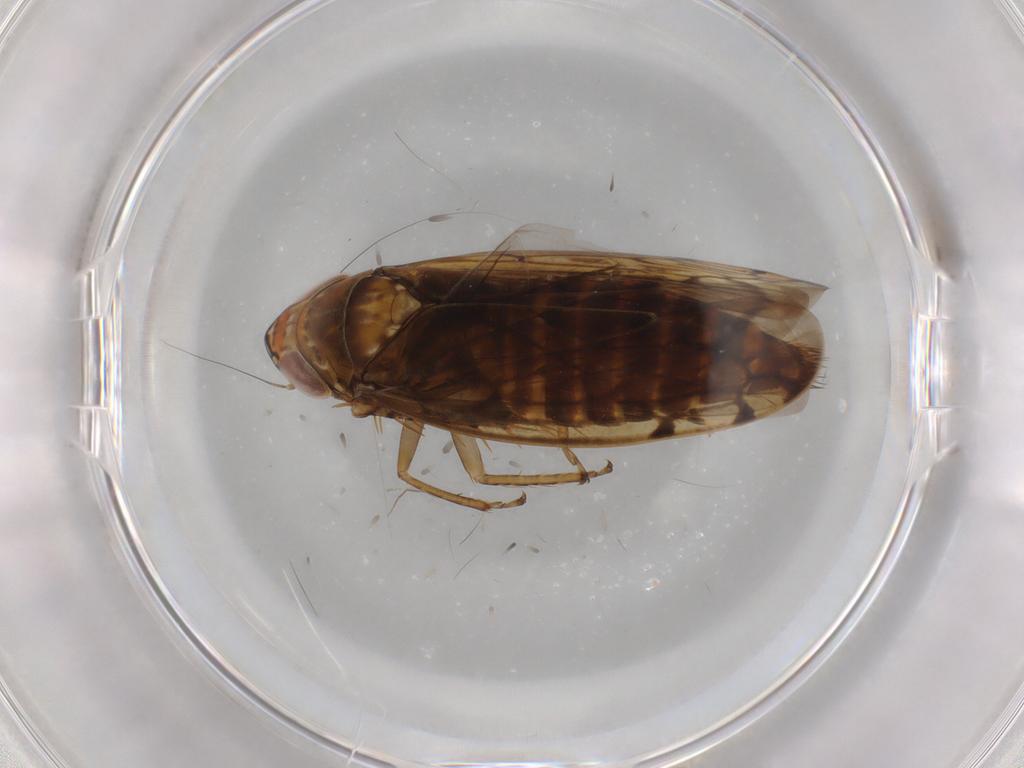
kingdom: Animalia
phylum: Arthropoda
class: Insecta
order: Hemiptera
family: Cicadellidae
